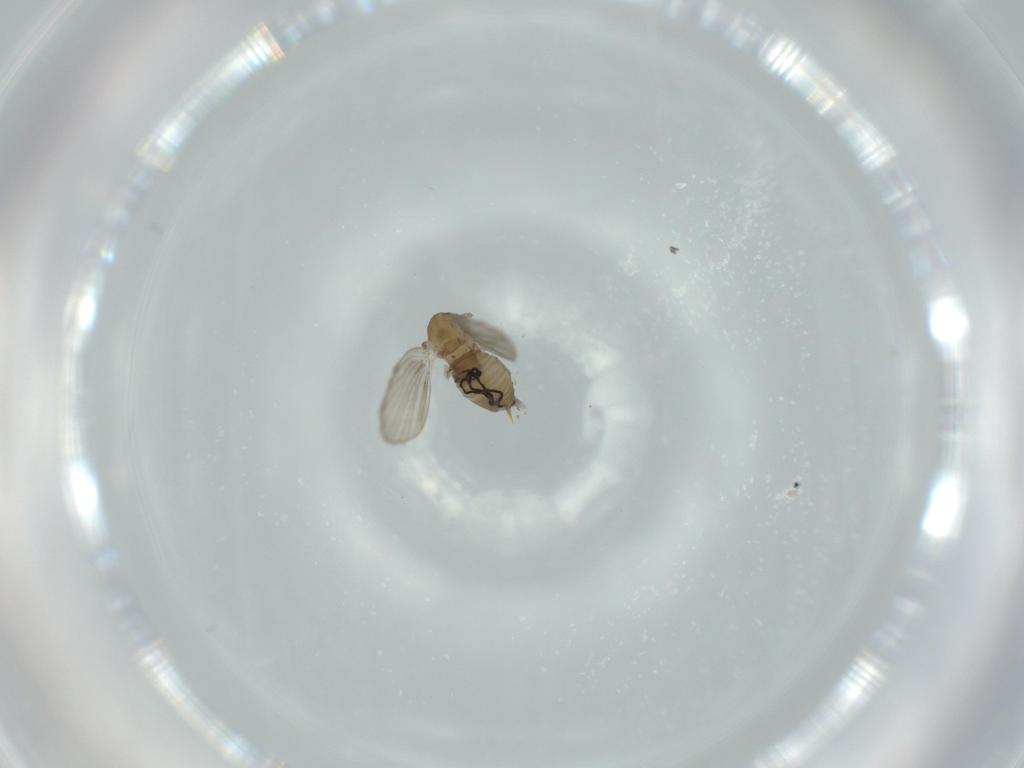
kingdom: Animalia
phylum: Arthropoda
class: Insecta
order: Diptera
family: Psychodidae
